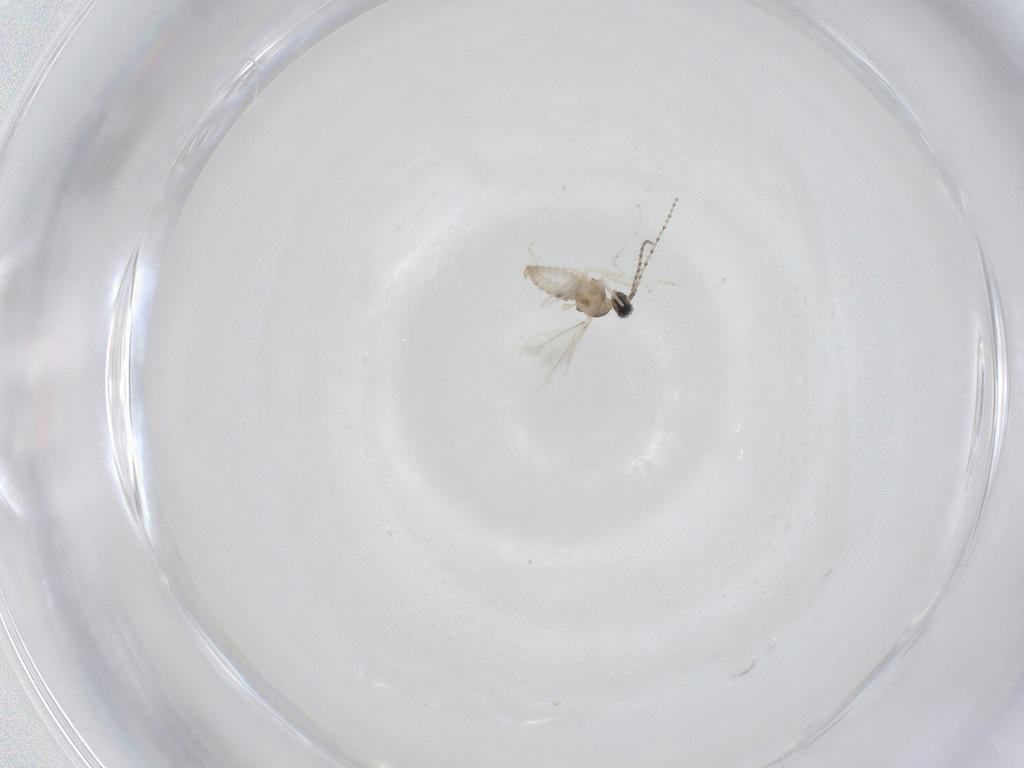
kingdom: Animalia
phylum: Arthropoda
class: Insecta
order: Diptera
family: Cecidomyiidae
